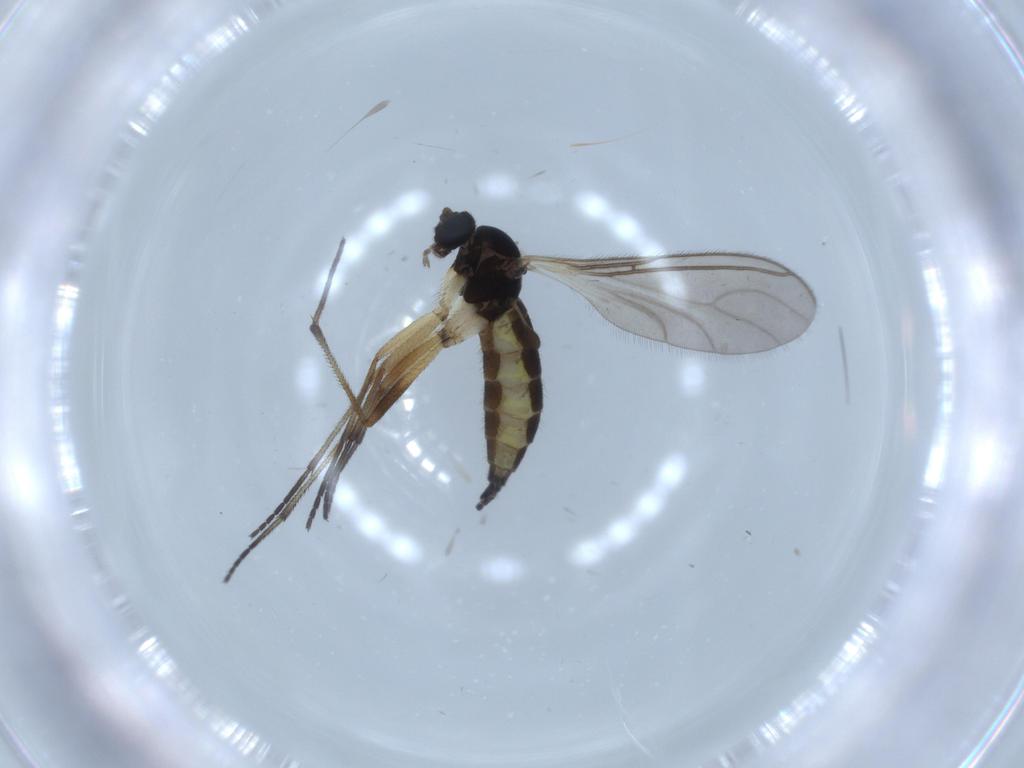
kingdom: Animalia
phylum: Arthropoda
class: Insecta
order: Diptera
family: Sciaridae
